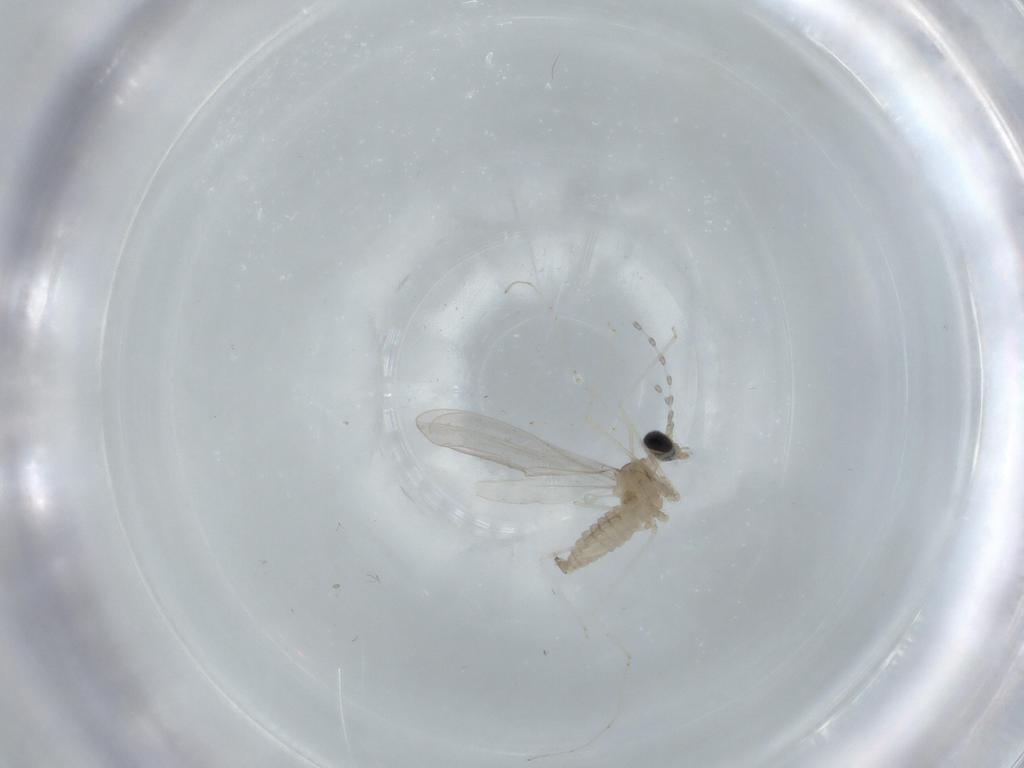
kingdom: Animalia
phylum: Arthropoda
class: Insecta
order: Diptera
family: Cecidomyiidae
